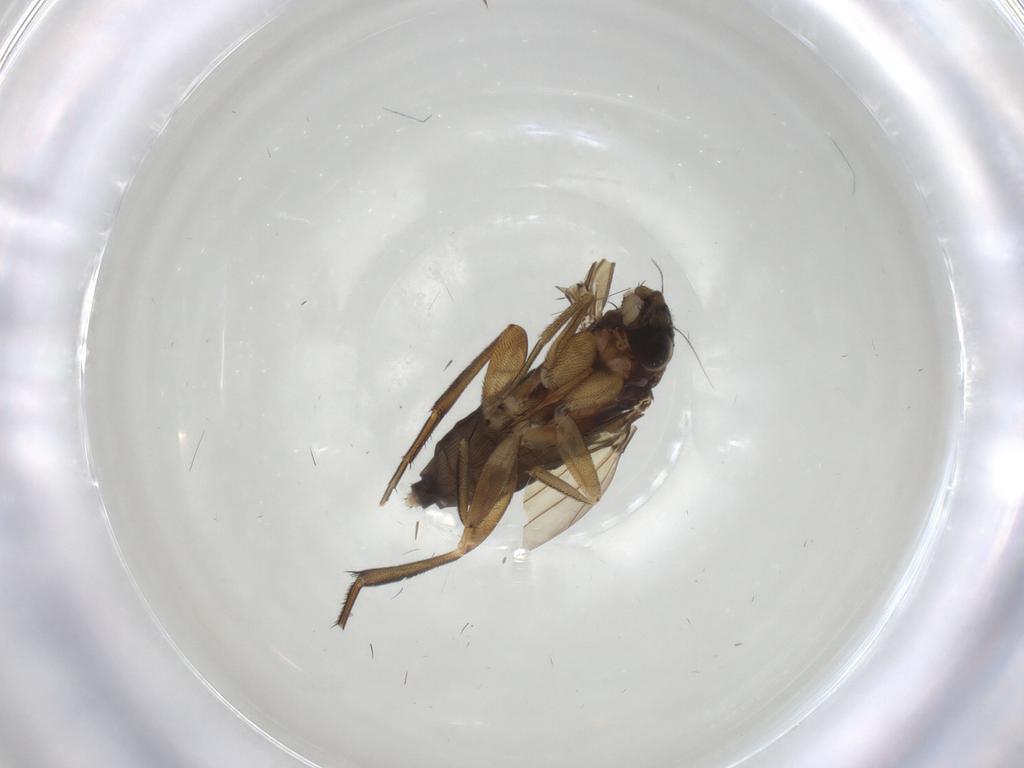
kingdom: Animalia
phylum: Arthropoda
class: Insecta
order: Diptera
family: Phoridae
